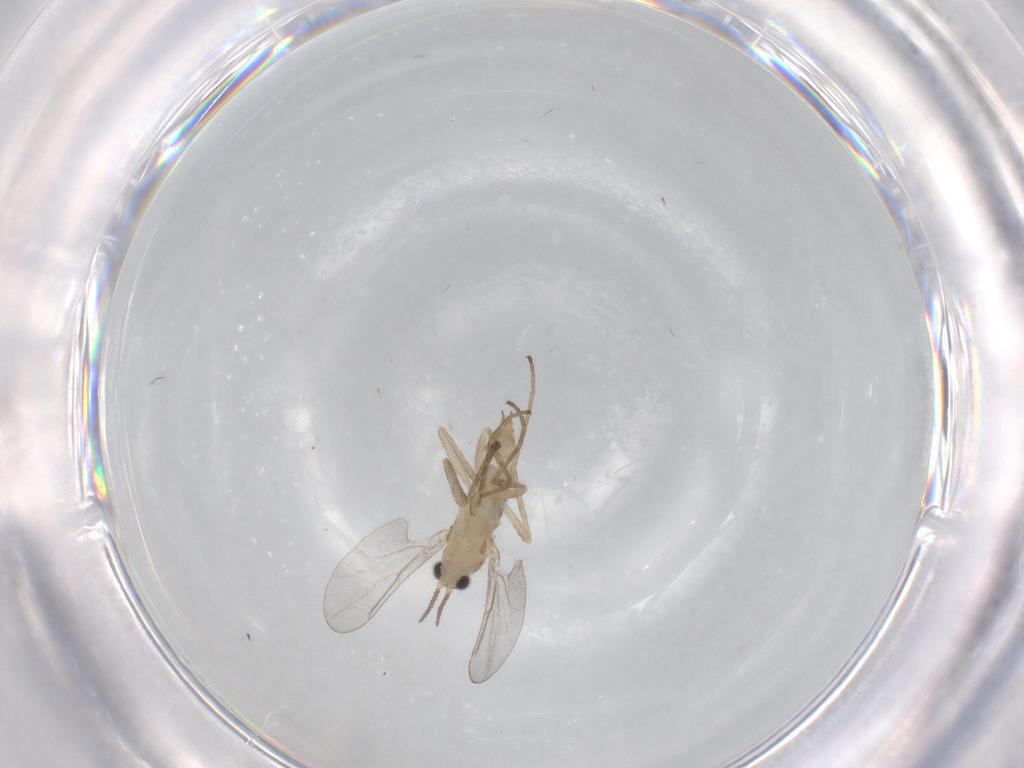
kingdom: Animalia
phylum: Arthropoda
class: Insecta
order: Diptera
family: Cecidomyiidae
